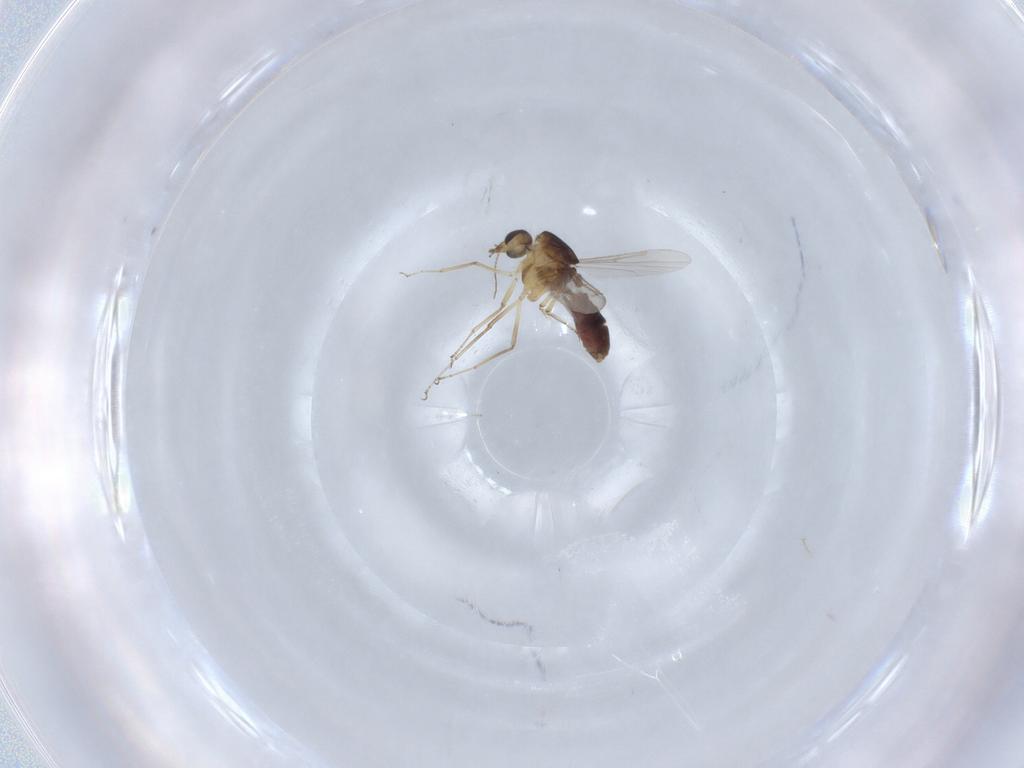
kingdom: Animalia
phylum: Arthropoda
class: Insecta
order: Diptera
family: Ceratopogonidae
